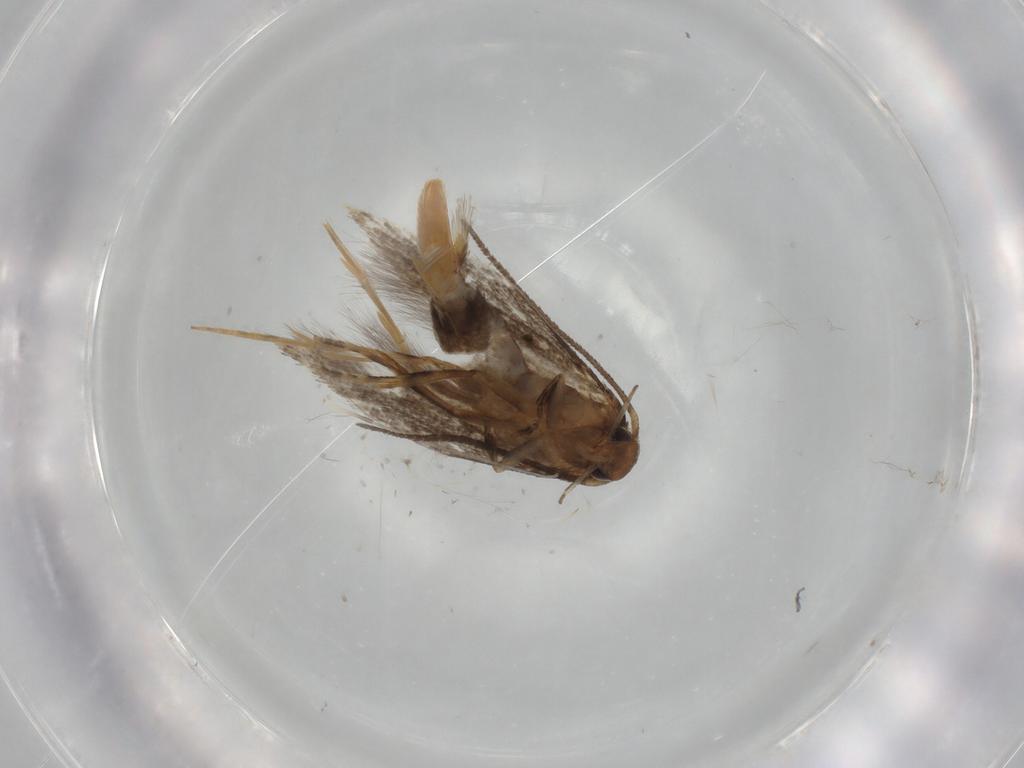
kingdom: Animalia
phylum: Arthropoda
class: Insecta
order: Lepidoptera
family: Elachistidae
